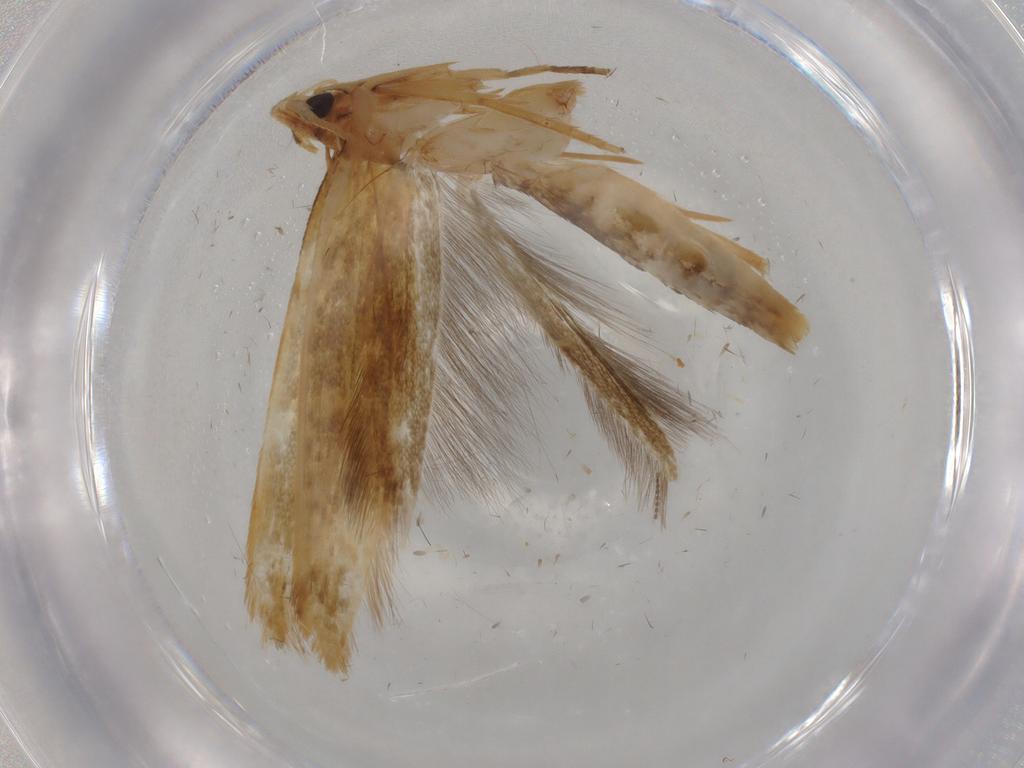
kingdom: Animalia
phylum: Arthropoda
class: Insecta
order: Lepidoptera
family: Tineidae
